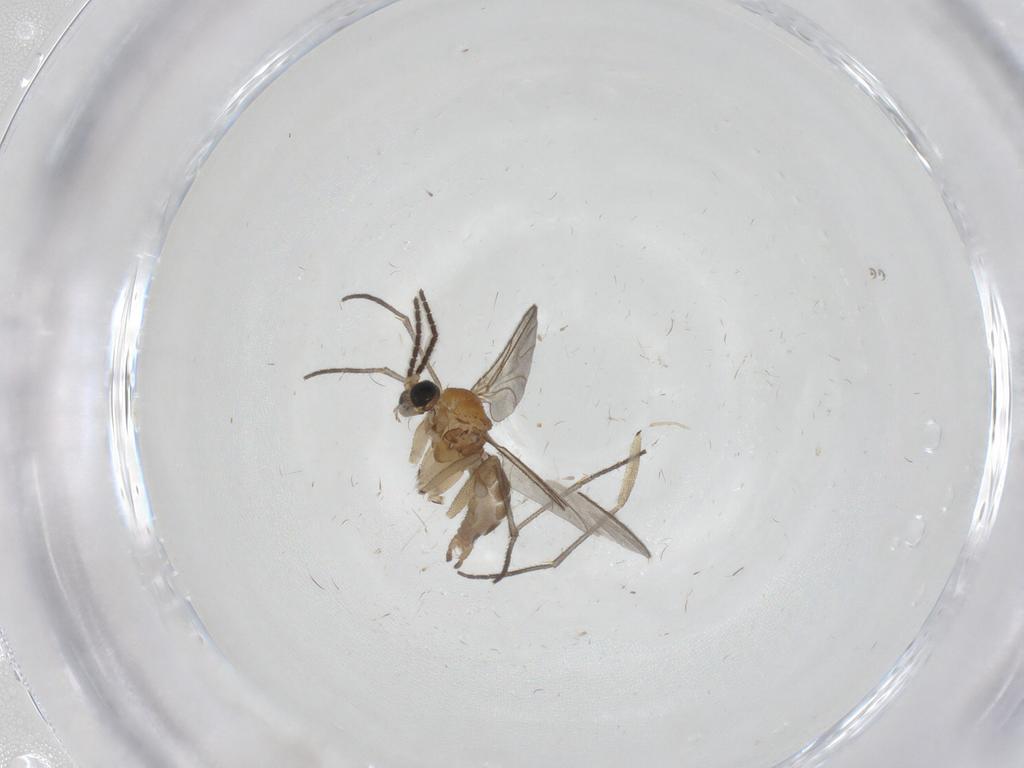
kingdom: Animalia
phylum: Arthropoda
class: Insecta
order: Diptera
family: Sciaridae
